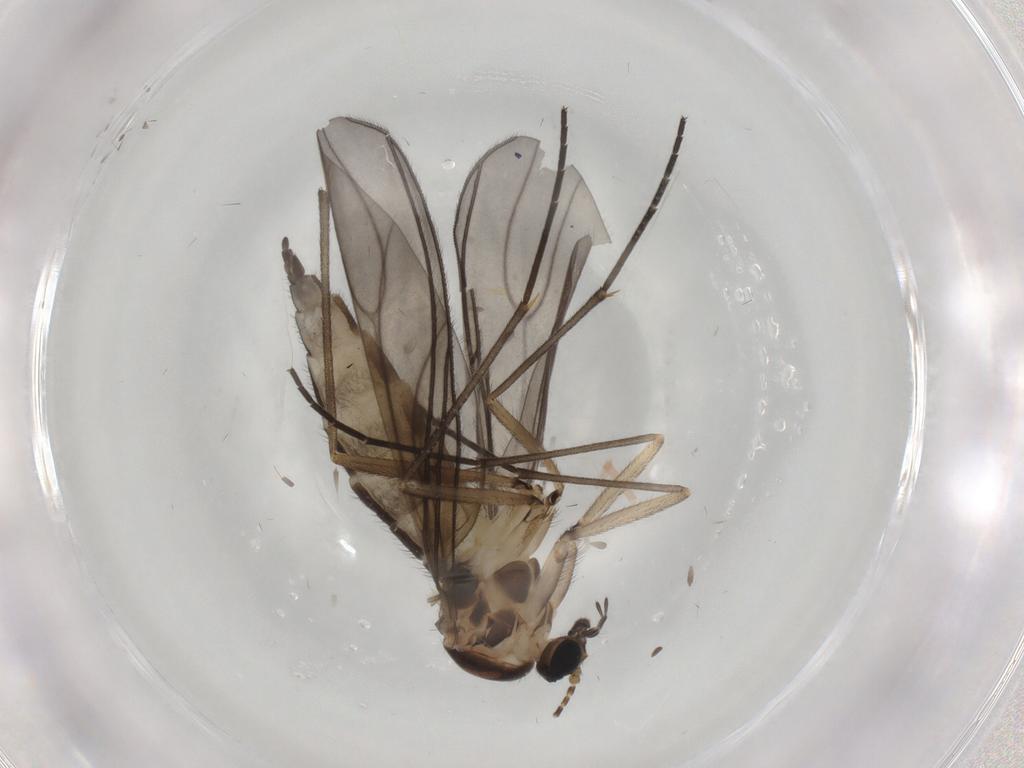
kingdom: Animalia
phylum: Arthropoda
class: Insecta
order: Diptera
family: Sciaridae
